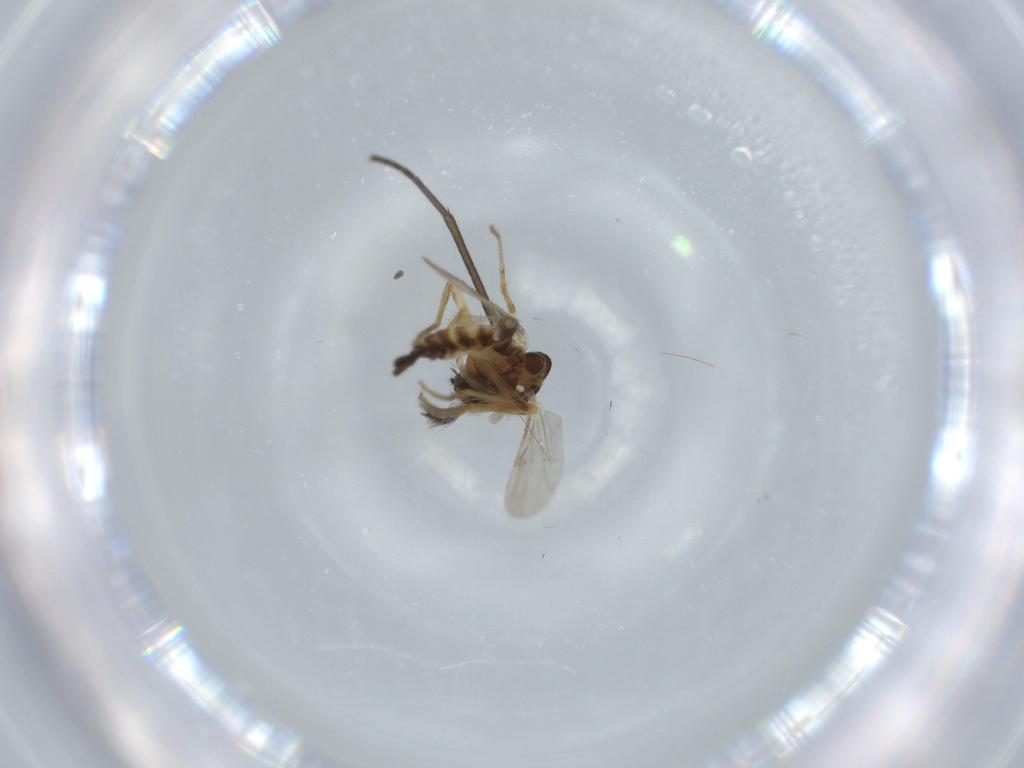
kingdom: Animalia
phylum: Arthropoda
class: Insecta
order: Diptera
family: Ceratopogonidae
